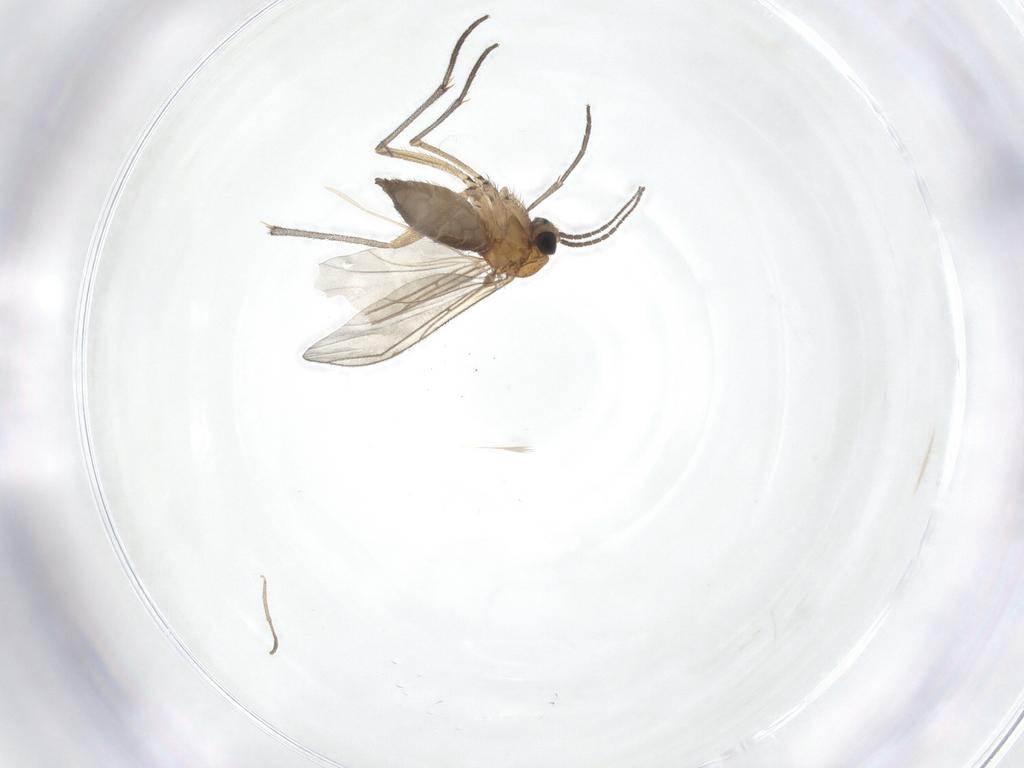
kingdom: Animalia
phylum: Arthropoda
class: Insecta
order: Diptera
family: Sciaridae
